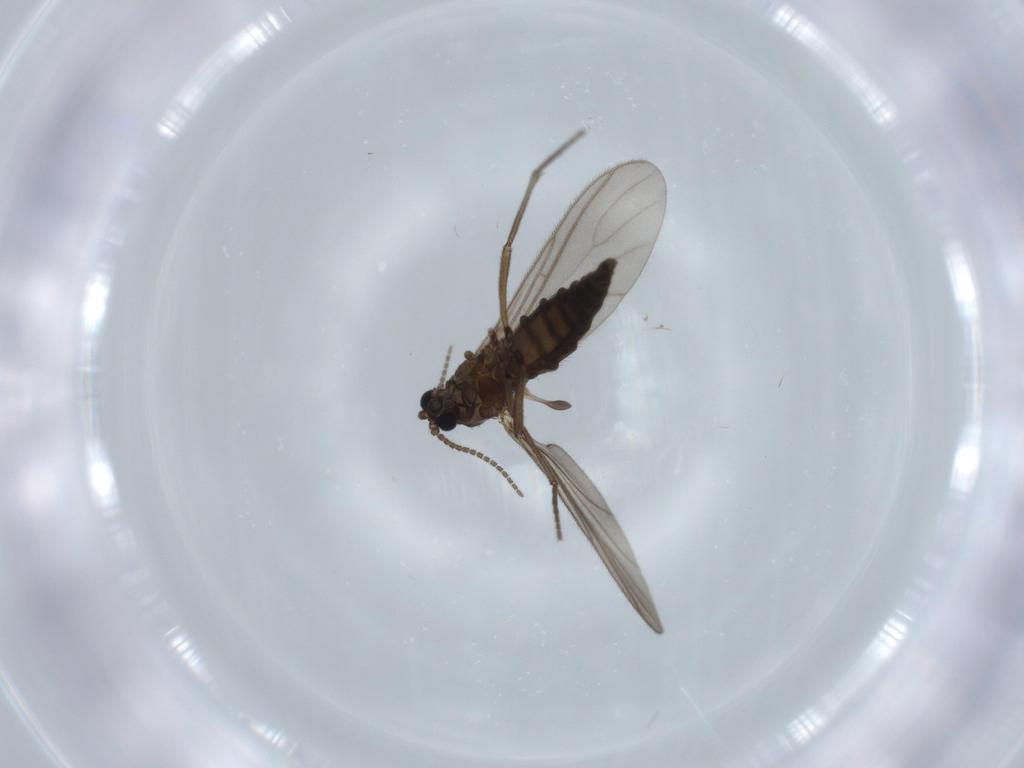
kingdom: Animalia
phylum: Arthropoda
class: Insecta
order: Diptera
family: Sciaridae
